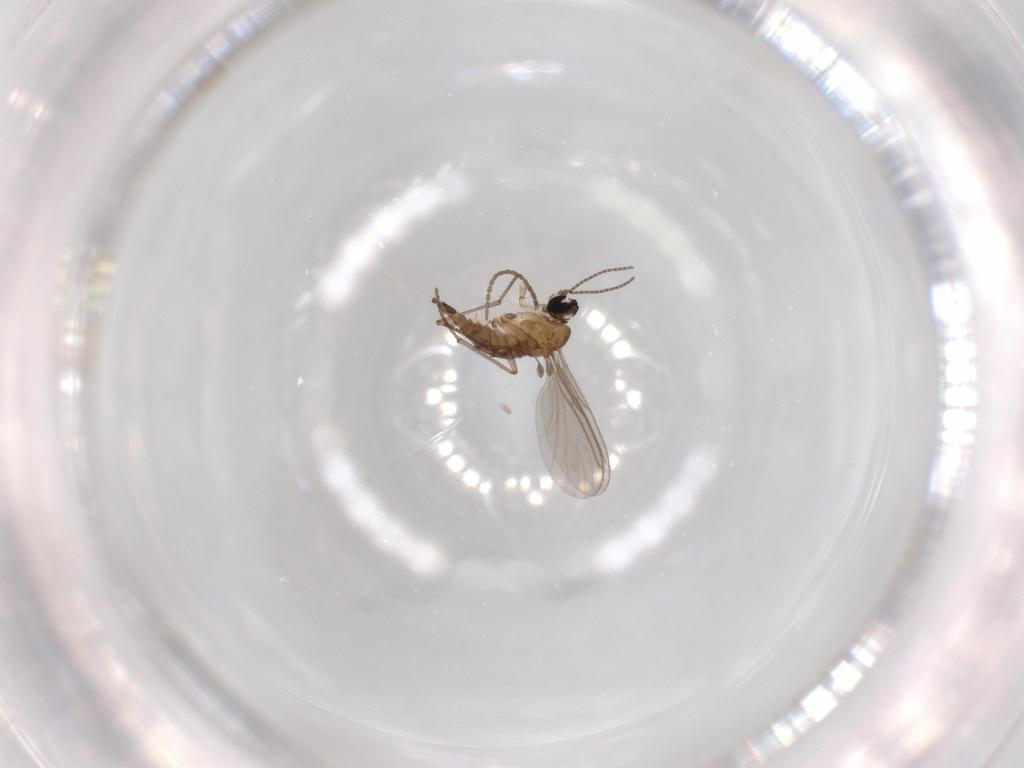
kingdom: Animalia
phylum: Arthropoda
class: Insecta
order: Diptera
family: Sciaridae
